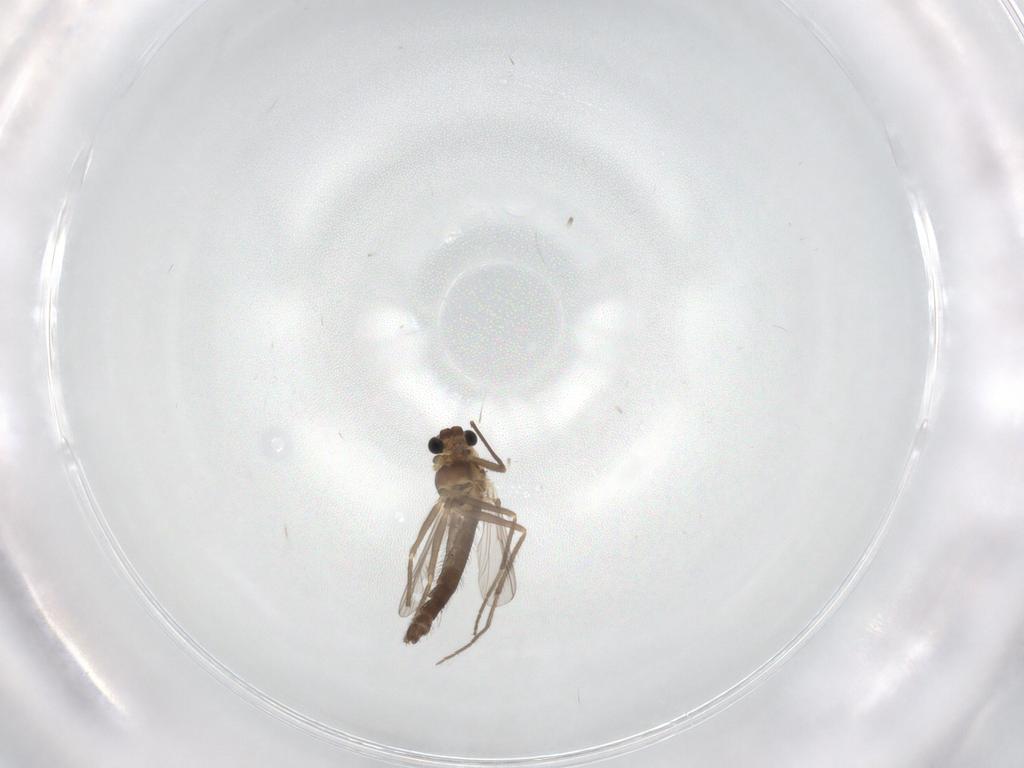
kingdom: Animalia
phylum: Arthropoda
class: Insecta
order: Diptera
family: Chironomidae
